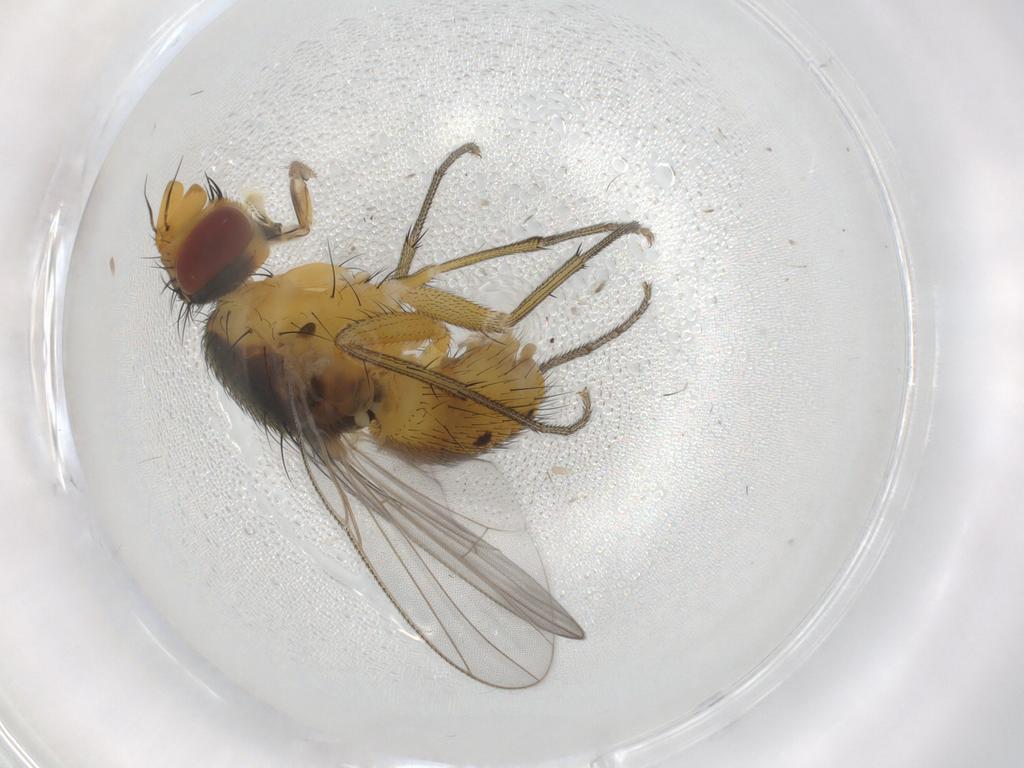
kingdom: Animalia
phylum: Arthropoda
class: Insecta
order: Diptera
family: Muscidae
